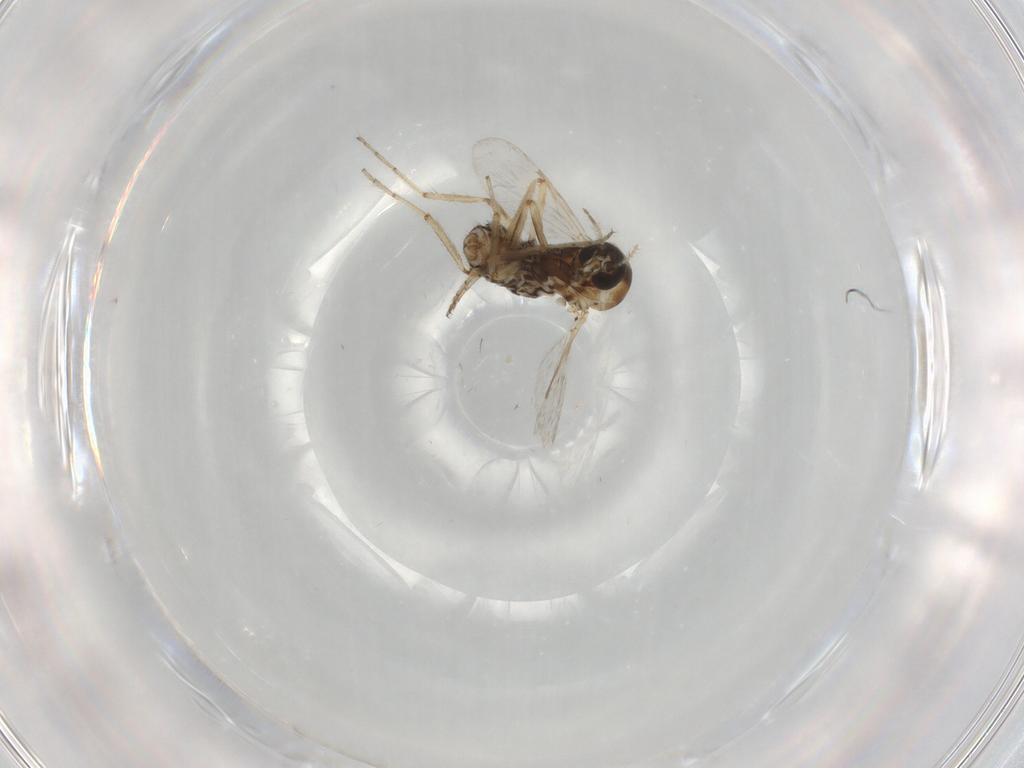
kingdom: Animalia
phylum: Arthropoda
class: Insecta
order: Diptera
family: Ceratopogonidae
